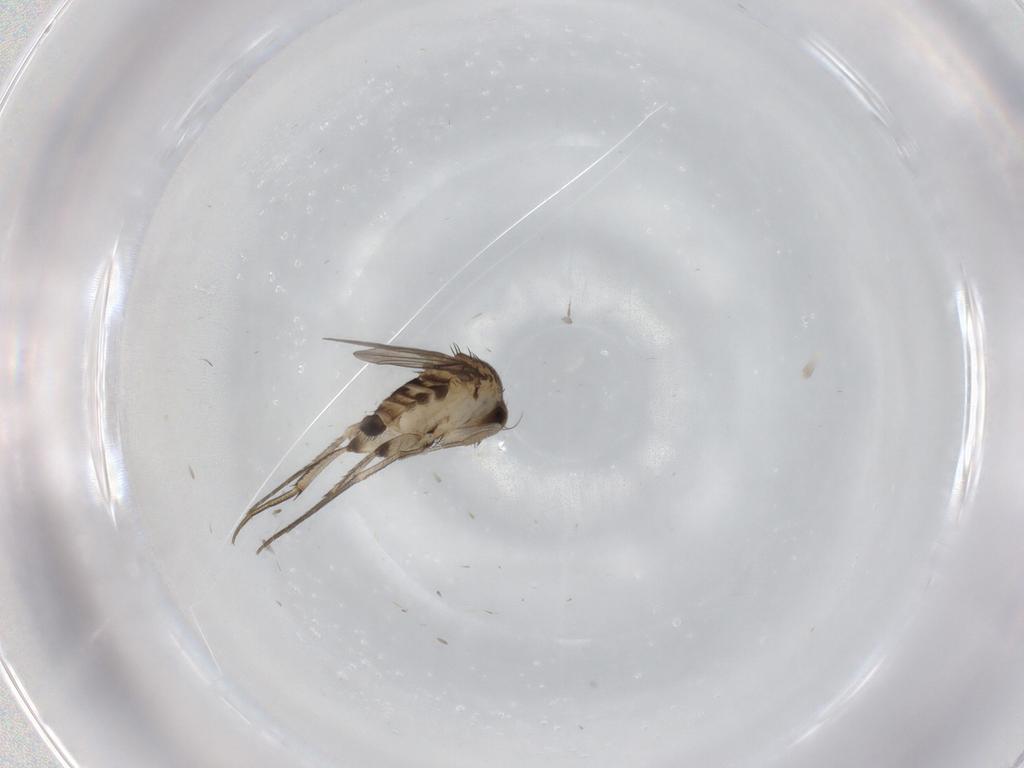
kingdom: Animalia
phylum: Arthropoda
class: Insecta
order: Diptera
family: Phoridae
